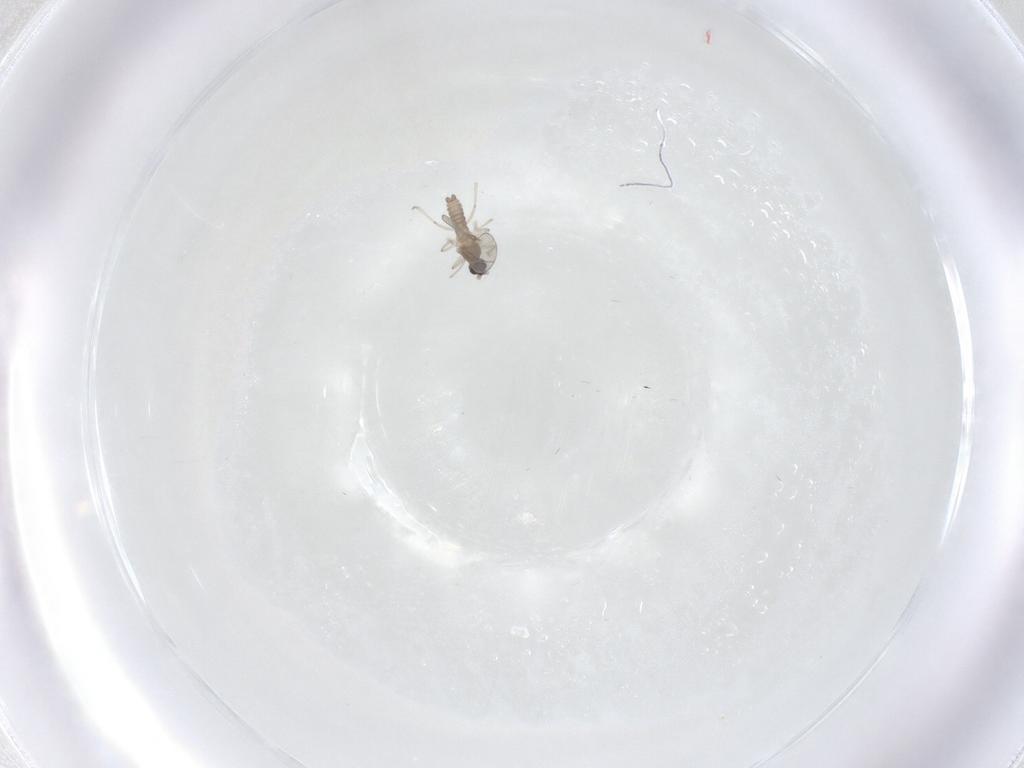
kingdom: Animalia
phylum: Arthropoda
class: Insecta
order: Diptera
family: Cecidomyiidae
